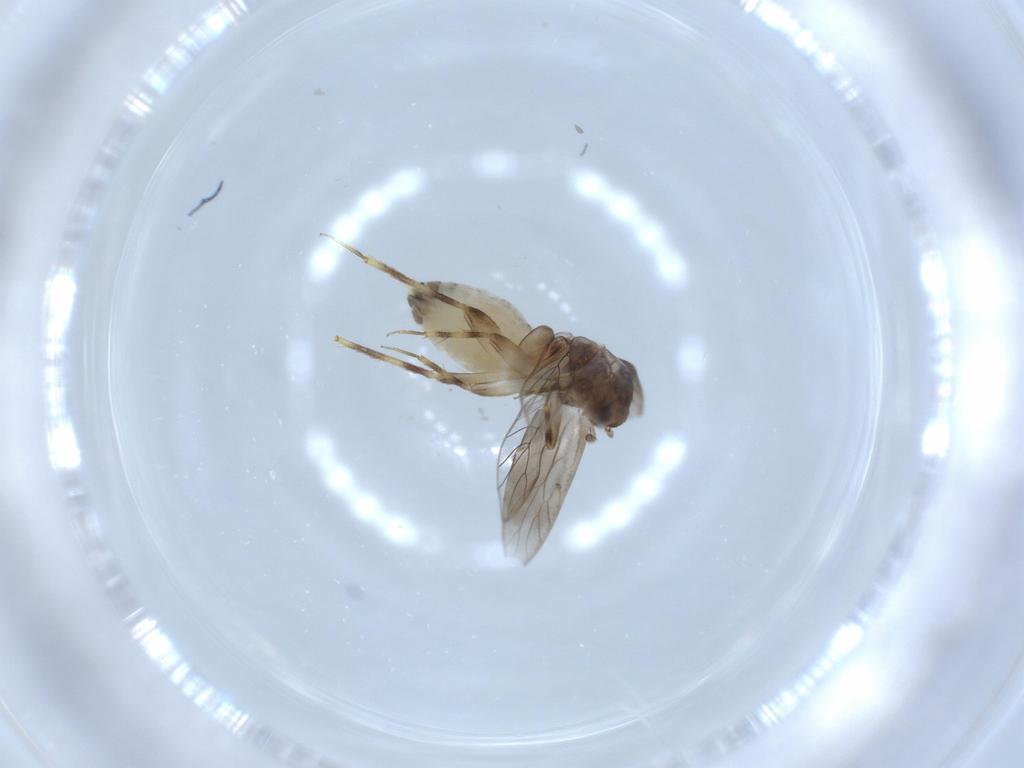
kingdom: Animalia
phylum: Arthropoda
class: Insecta
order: Psocodea
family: Lepidopsocidae
